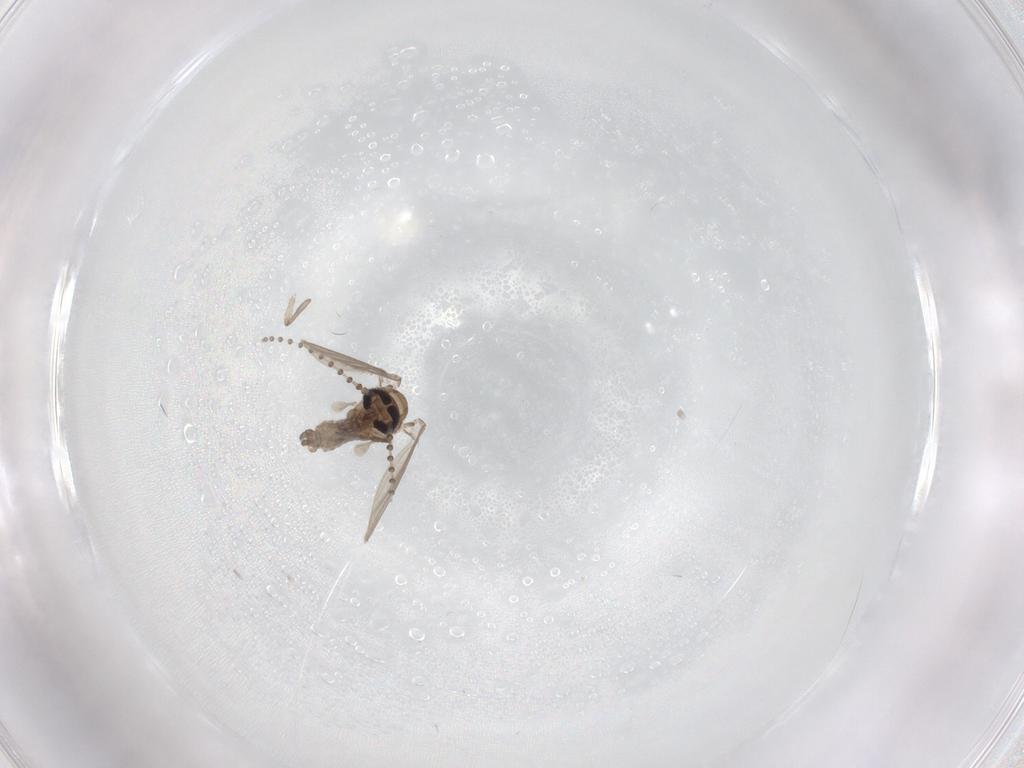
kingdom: Animalia
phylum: Arthropoda
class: Insecta
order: Diptera
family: Psychodidae
